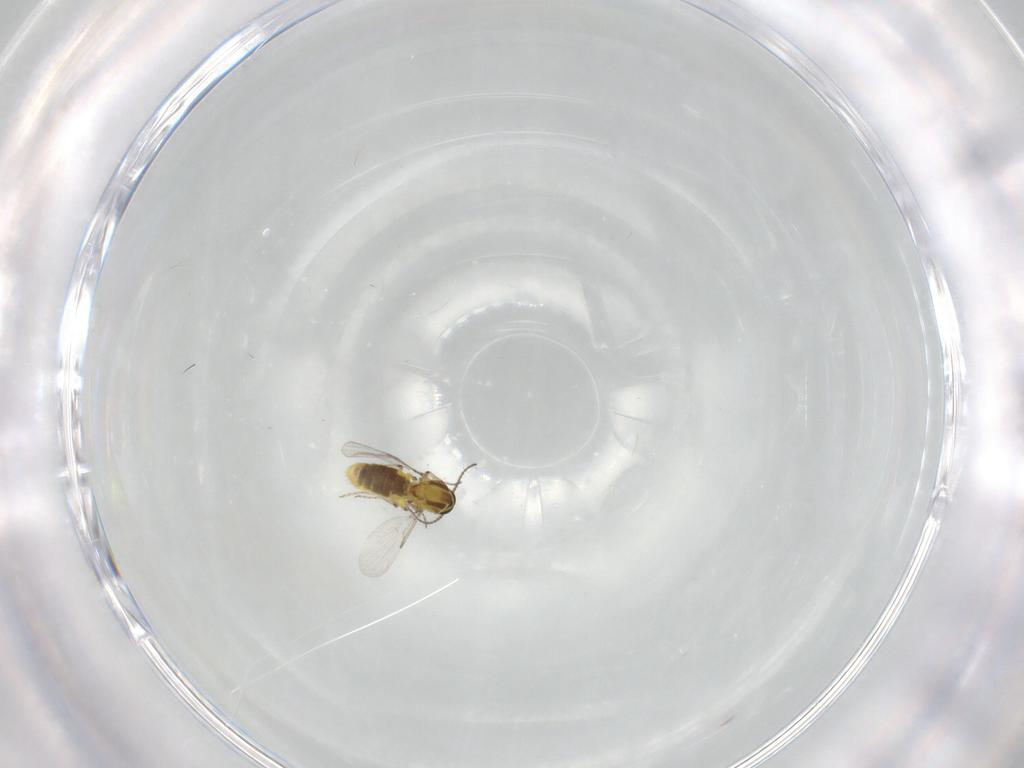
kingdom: Animalia
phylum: Arthropoda
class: Insecta
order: Diptera
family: Ceratopogonidae
